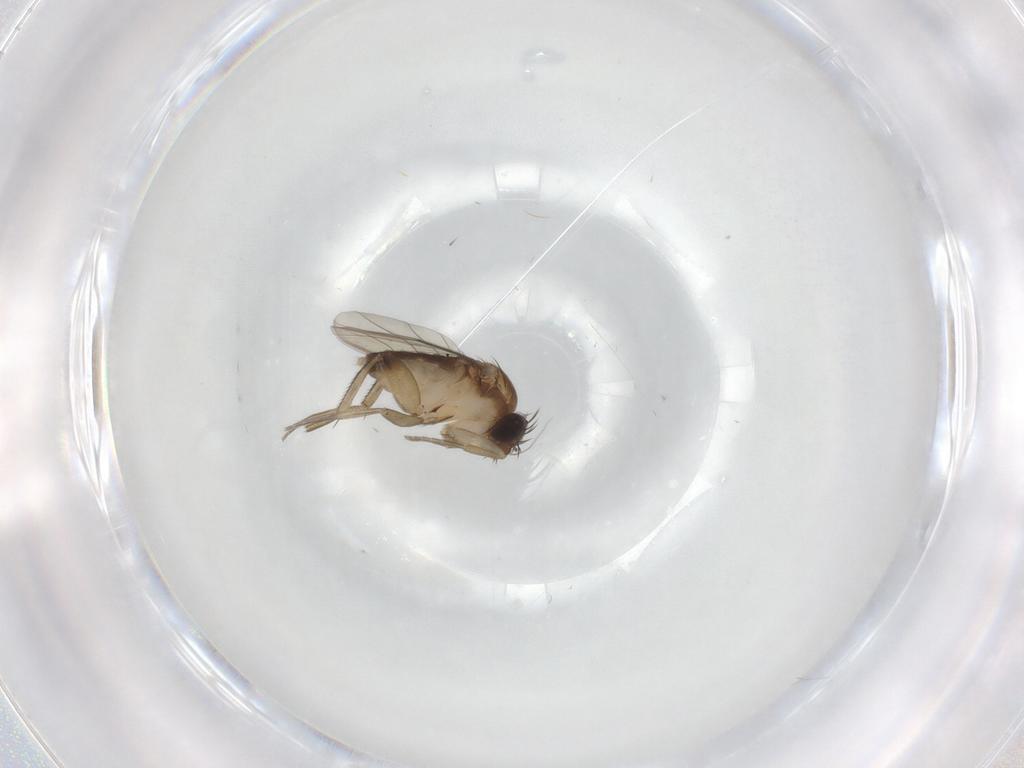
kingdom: Animalia
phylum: Arthropoda
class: Insecta
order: Diptera
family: Phoridae
